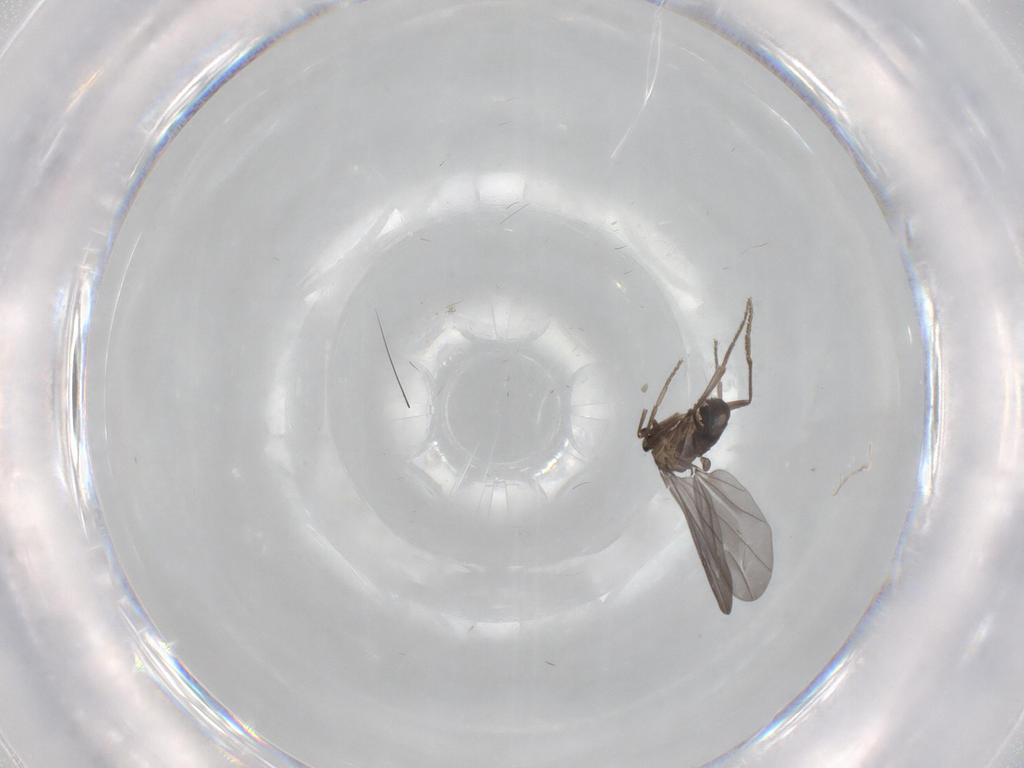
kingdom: Animalia
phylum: Arthropoda
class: Insecta
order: Diptera
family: Phoridae
